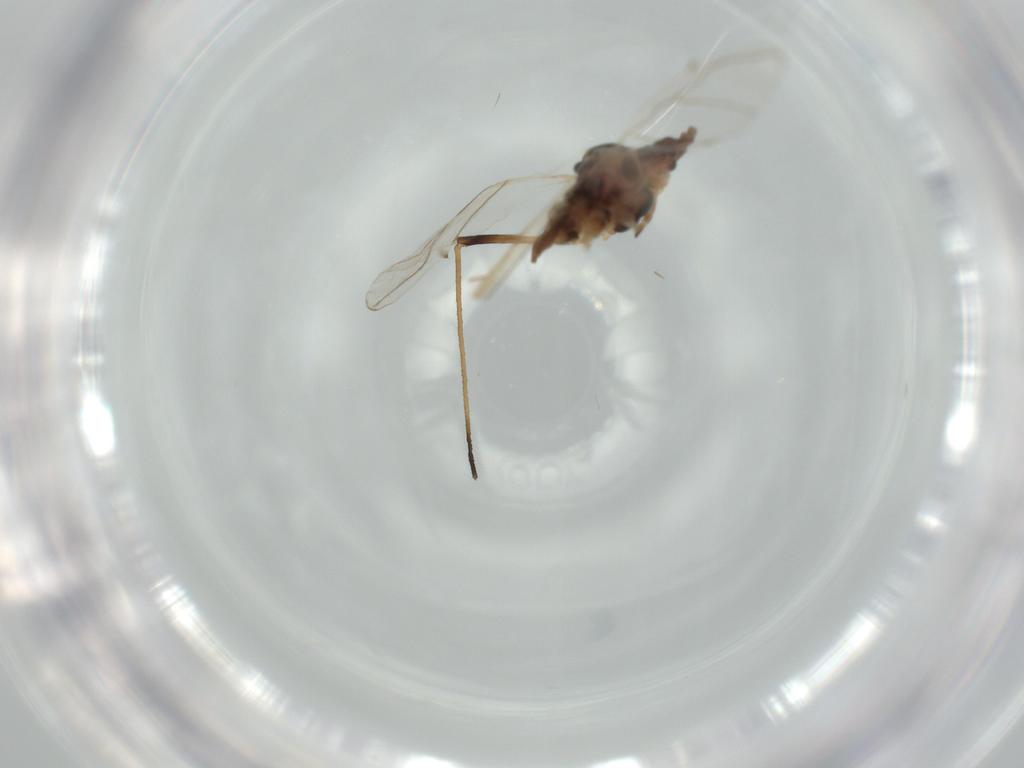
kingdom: Animalia
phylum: Arthropoda
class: Insecta
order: Hemiptera
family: Aphididae
